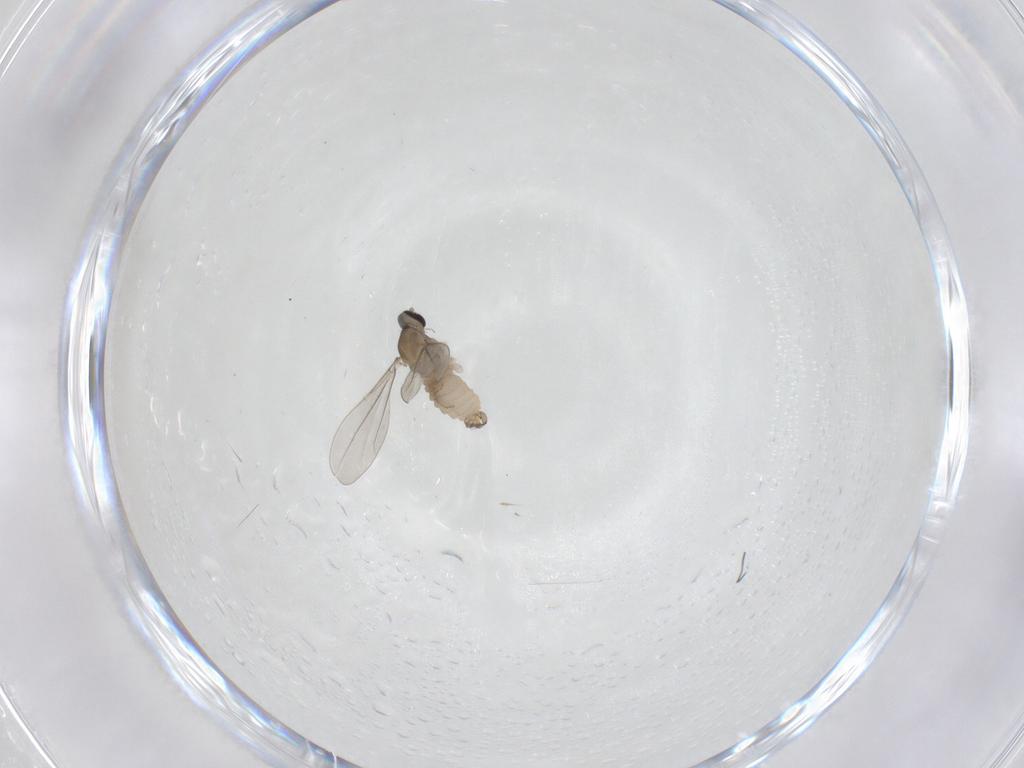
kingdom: Animalia
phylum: Arthropoda
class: Insecta
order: Diptera
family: Cecidomyiidae
